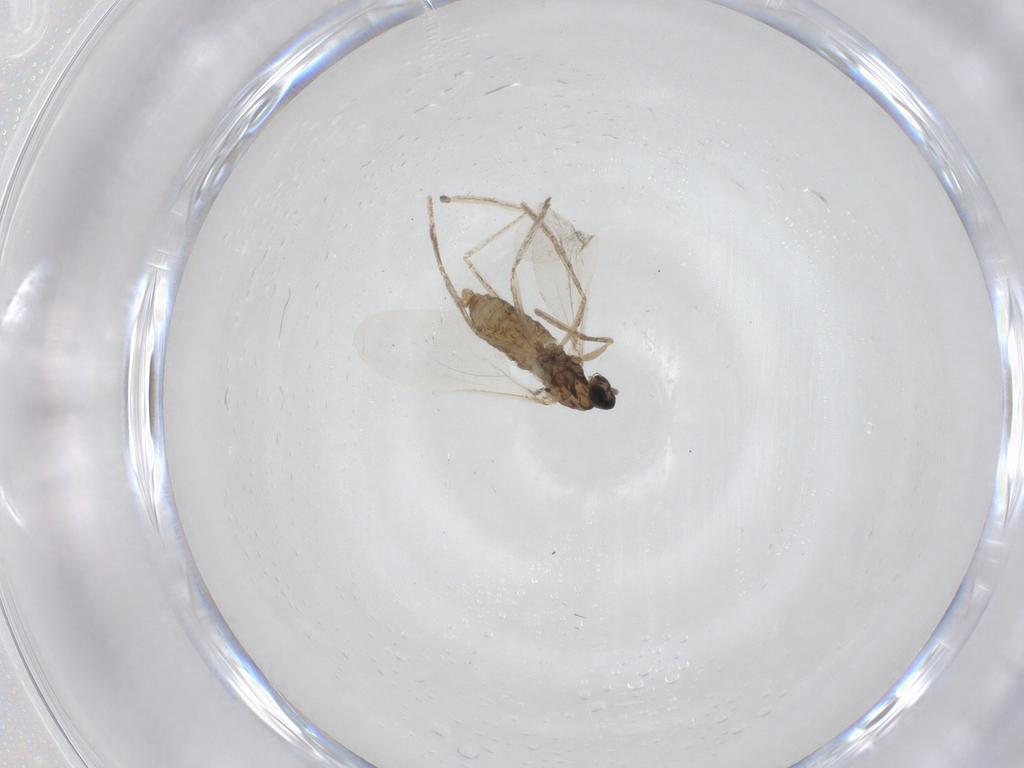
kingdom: Animalia
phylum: Arthropoda
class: Insecta
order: Diptera
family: Cecidomyiidae
